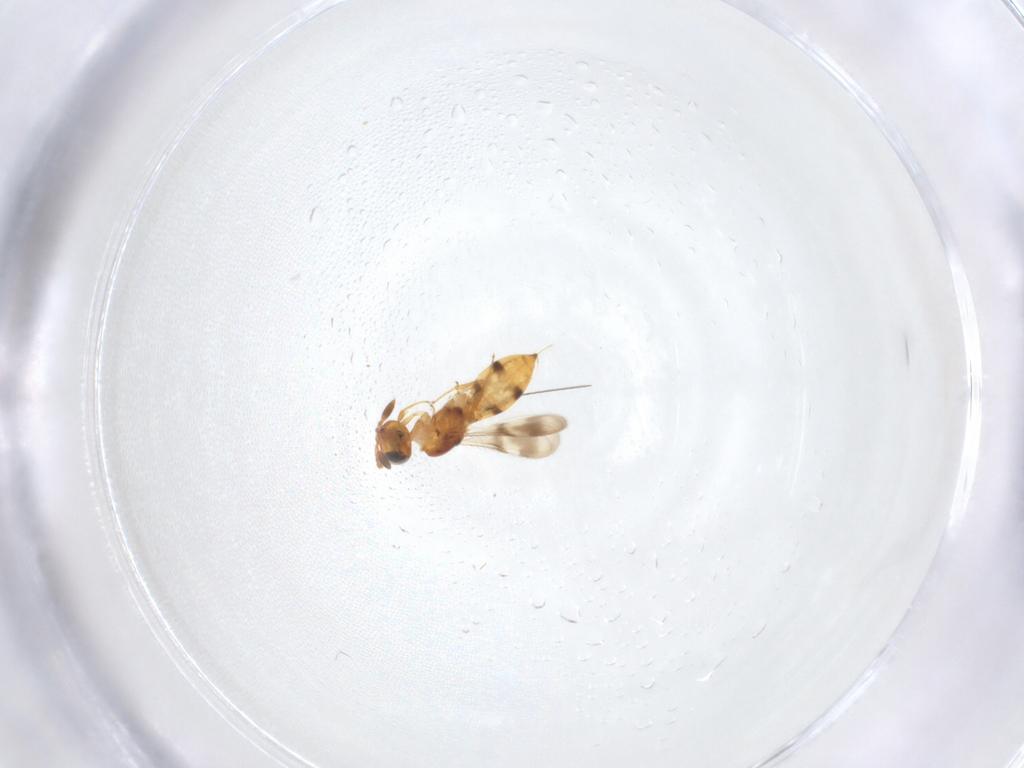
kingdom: Animalia
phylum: Arthropoda
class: Insecta
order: Hymenoptera
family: Scelionidae
